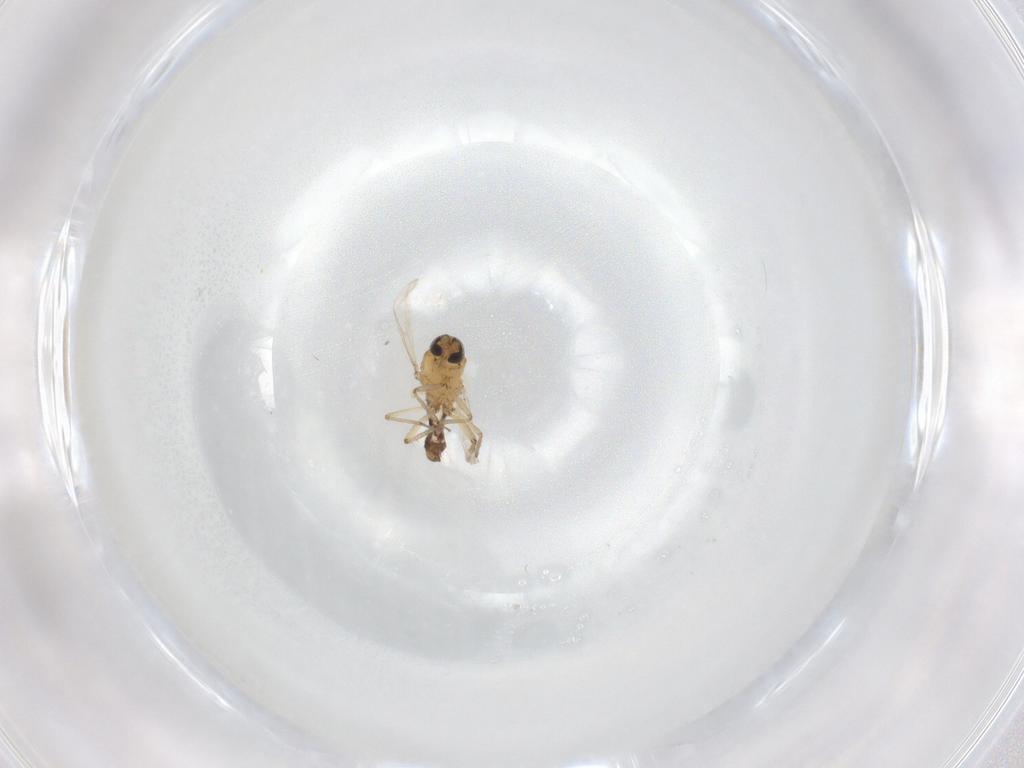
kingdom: Animalia
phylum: Arthropoda
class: Insecta
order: Diptera
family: Ceratopogonidae
